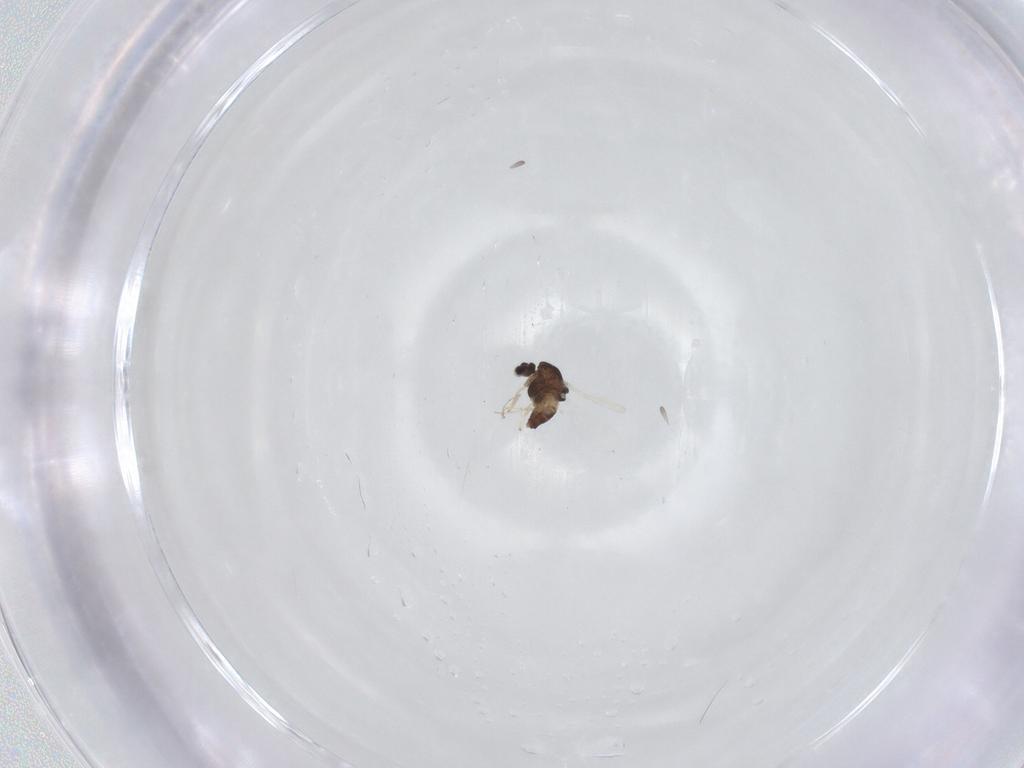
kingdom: Animalia
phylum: Arthropoda
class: Insecta
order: Diptera
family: Chironomidae
